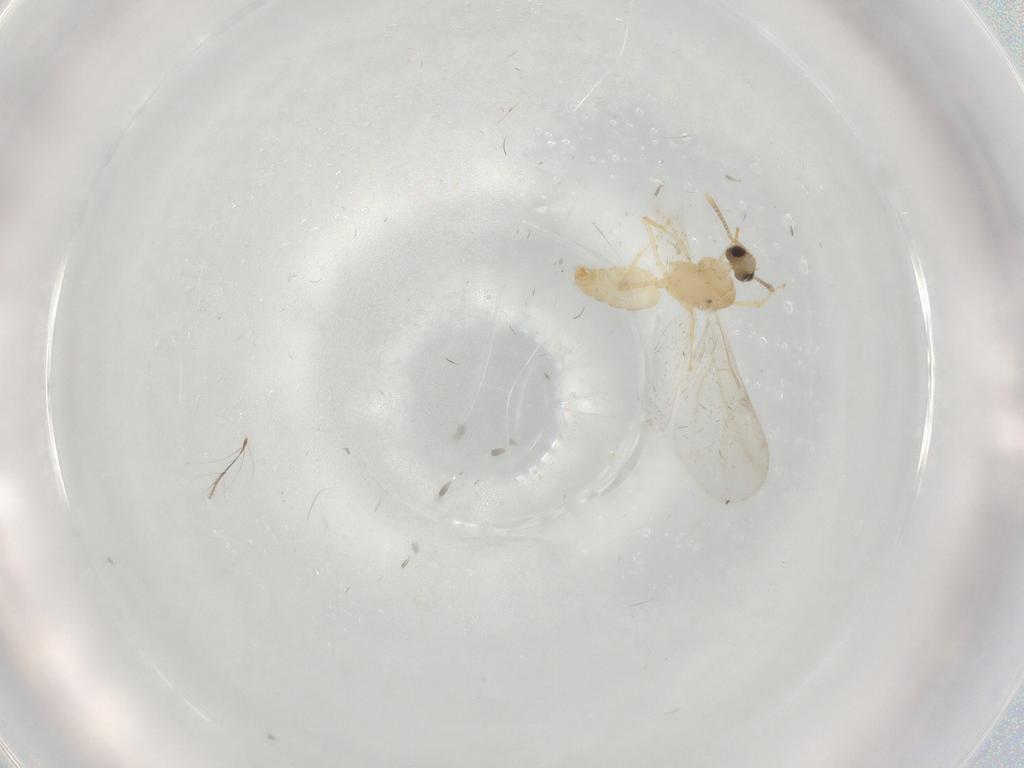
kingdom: Animalia
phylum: Arthropoda
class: Insecta
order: Hymenoptera
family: Formicidae
